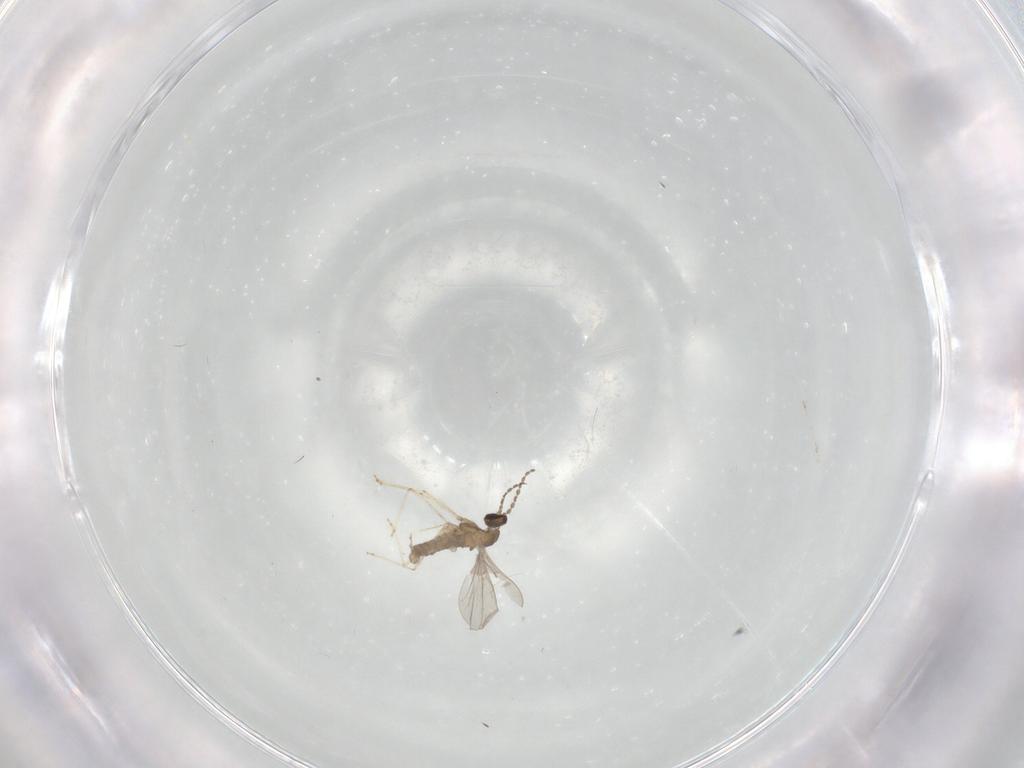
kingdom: Animalia
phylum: Arthropoda
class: Insecta
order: Diptera
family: Cecidomyiidae
